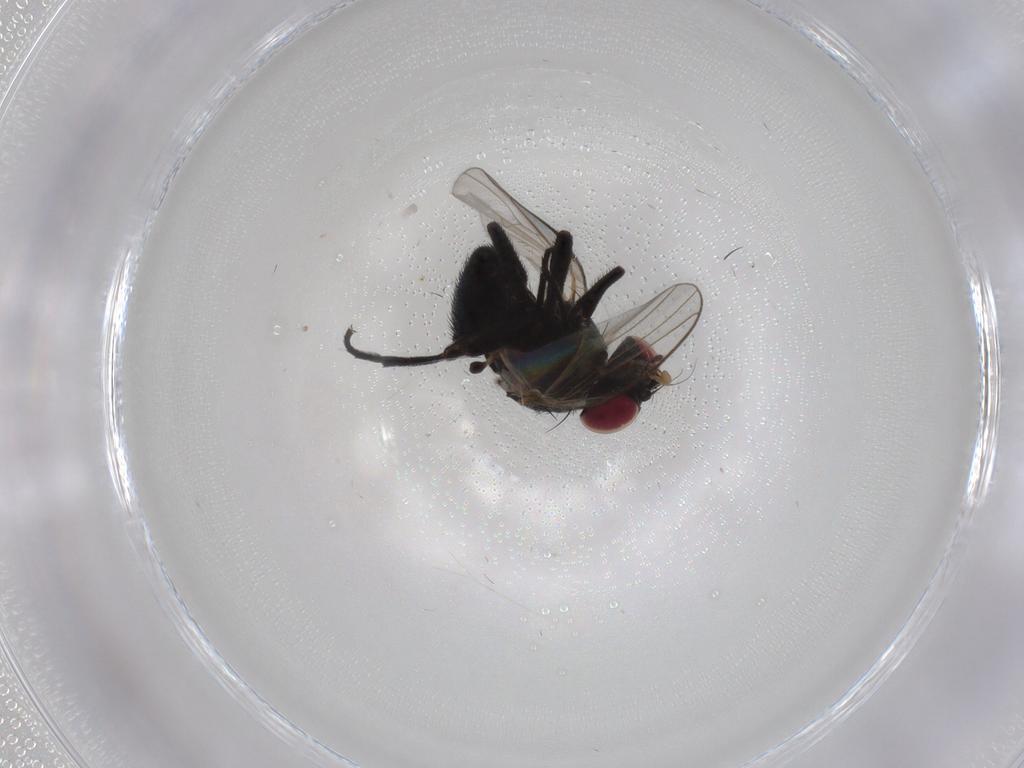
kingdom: Animalia
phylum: Arthropoda
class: Insecta
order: Diptera
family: Agromyzidae
